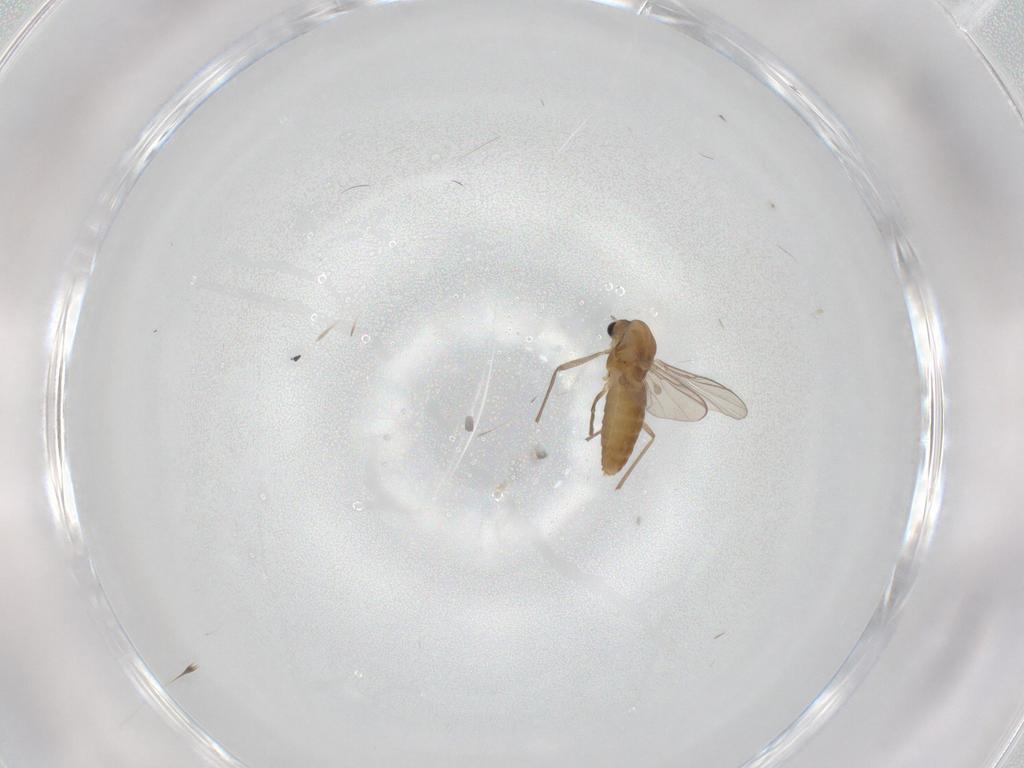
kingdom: Animalia
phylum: Arthropoda
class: Insecta
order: Diptera
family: Chironomidae
